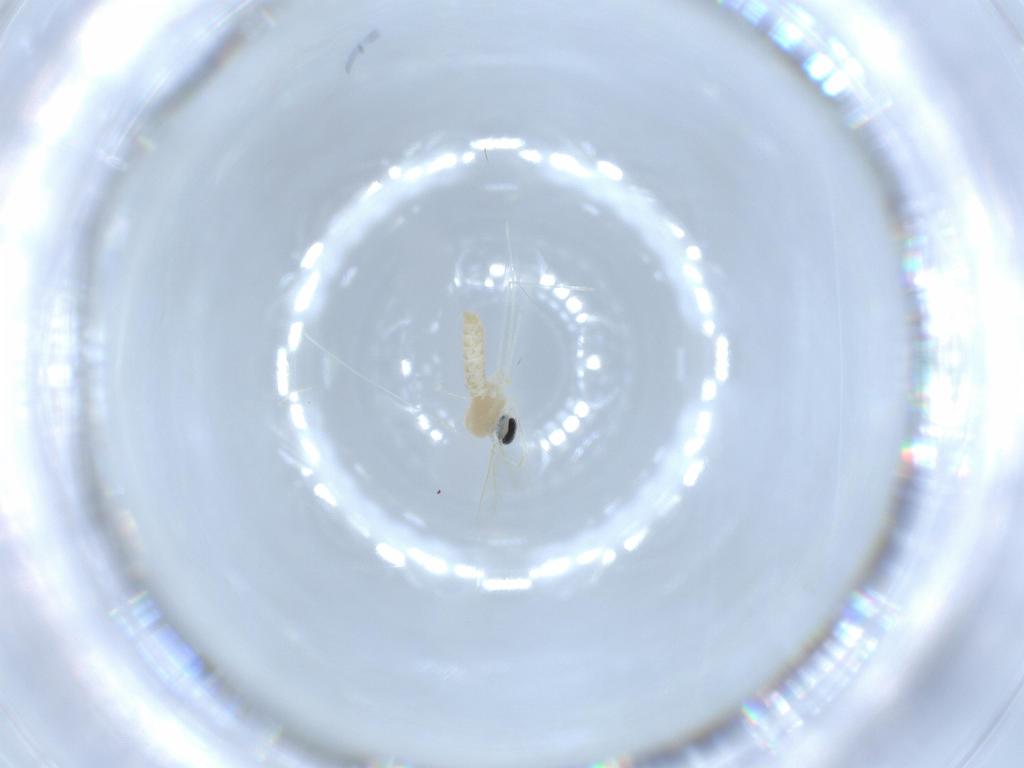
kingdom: Animalia
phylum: Arthropoda
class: Insecta
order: Diptera
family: Cecidomyiidae
